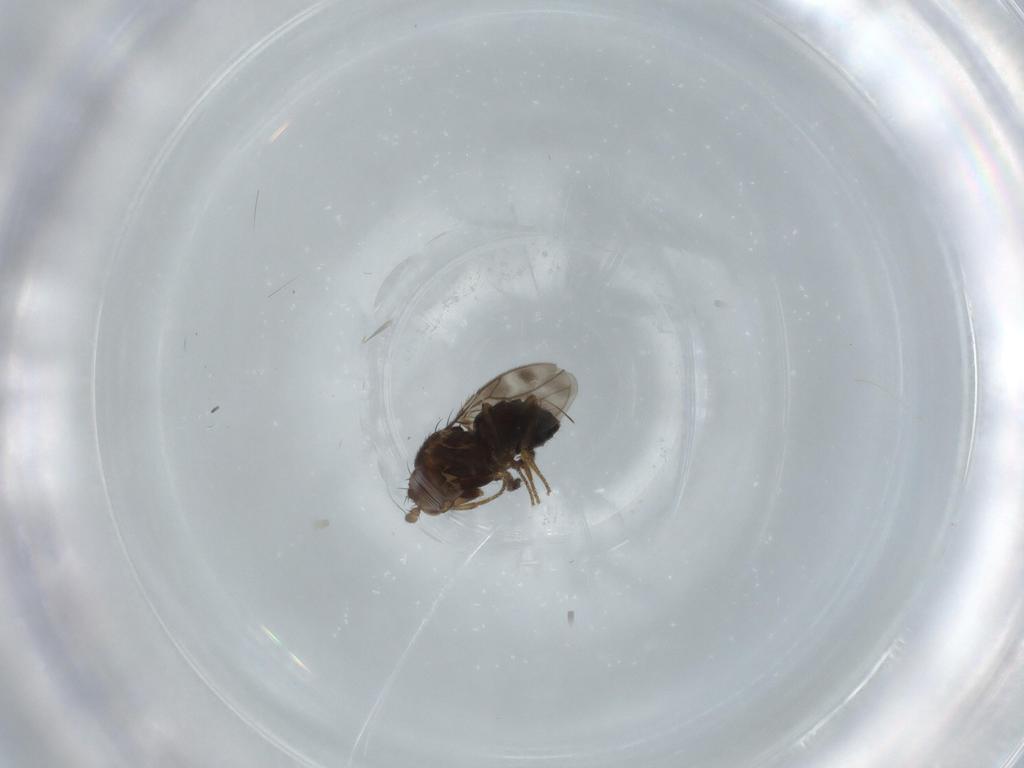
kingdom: Animalia
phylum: Arthropoda
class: Insecta
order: Diptera
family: Sphaeroceridae
